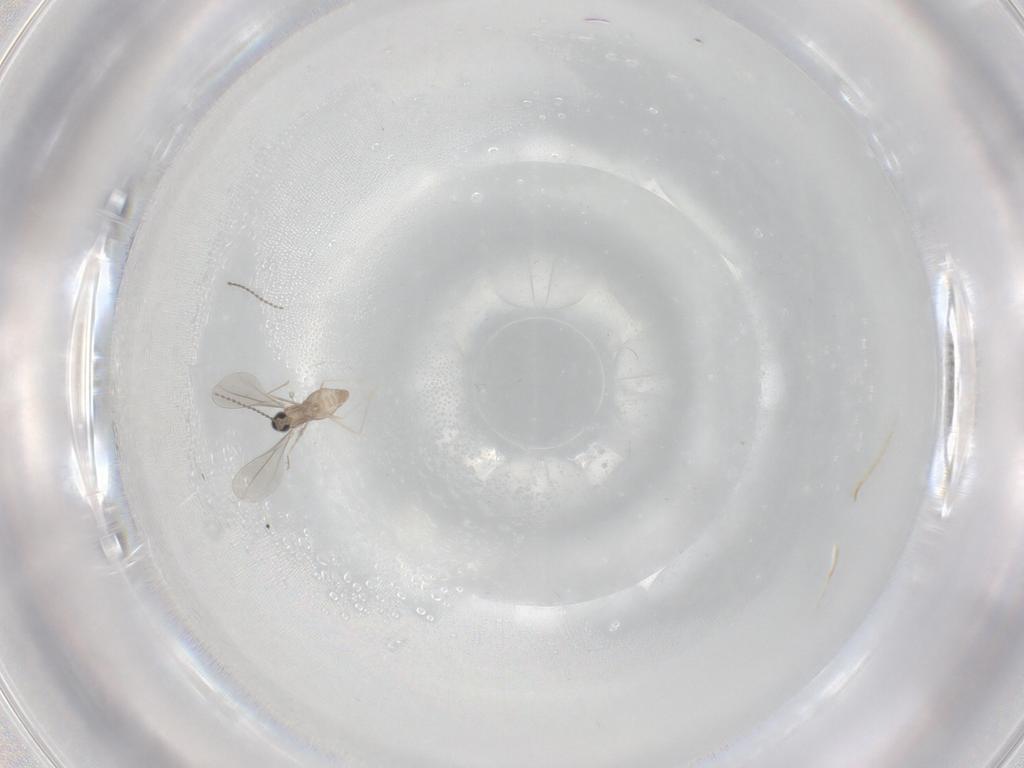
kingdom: Animalia
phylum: Arthropoda
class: Insecta
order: Diptera
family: Cecidomyiidae
